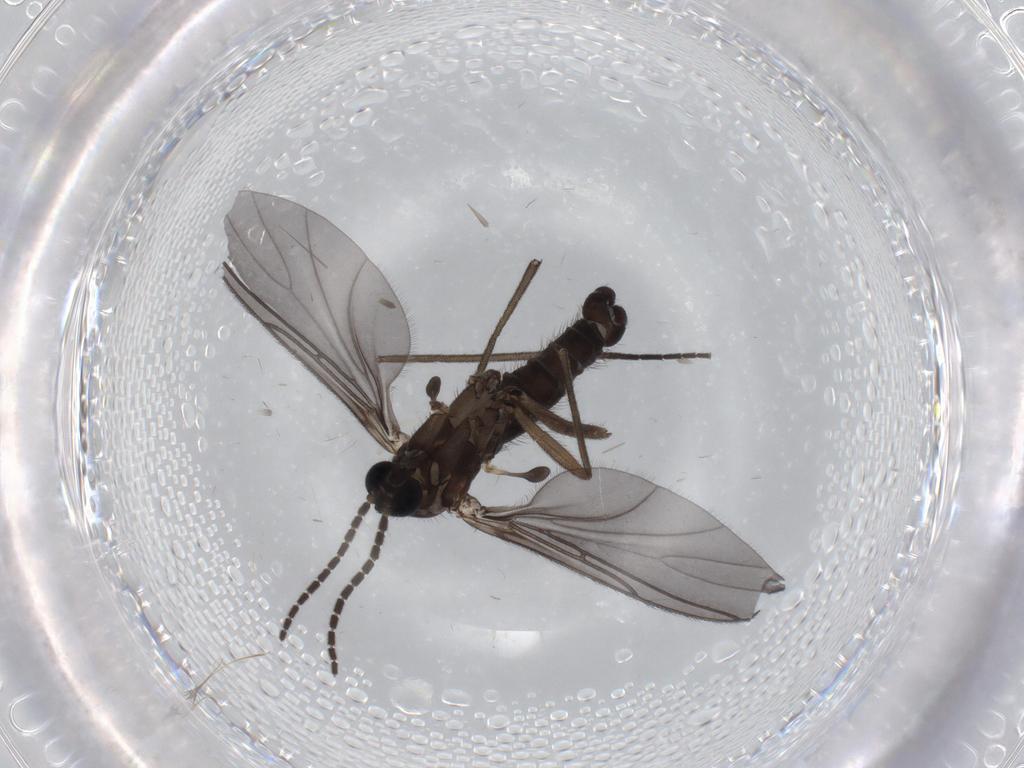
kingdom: Animalia
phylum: Arthropoda
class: Insecta
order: Diptera
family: Sciaridae
